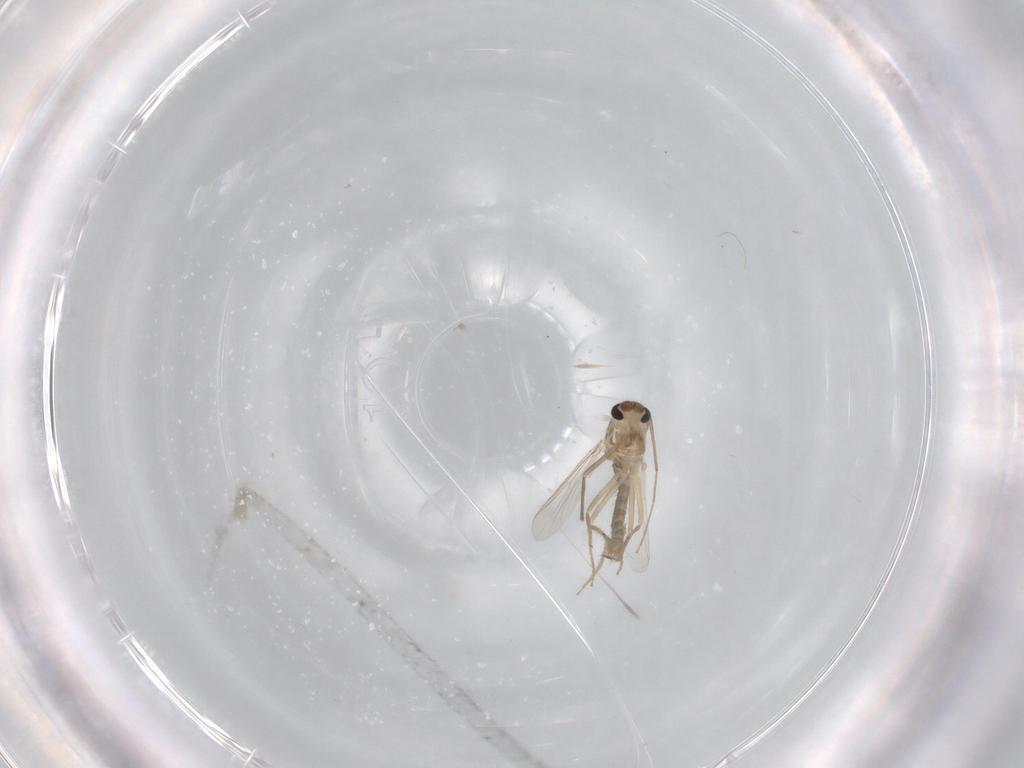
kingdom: Animalia
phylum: Arthropoda
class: Insecta
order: Diptera
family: Chironomidae
